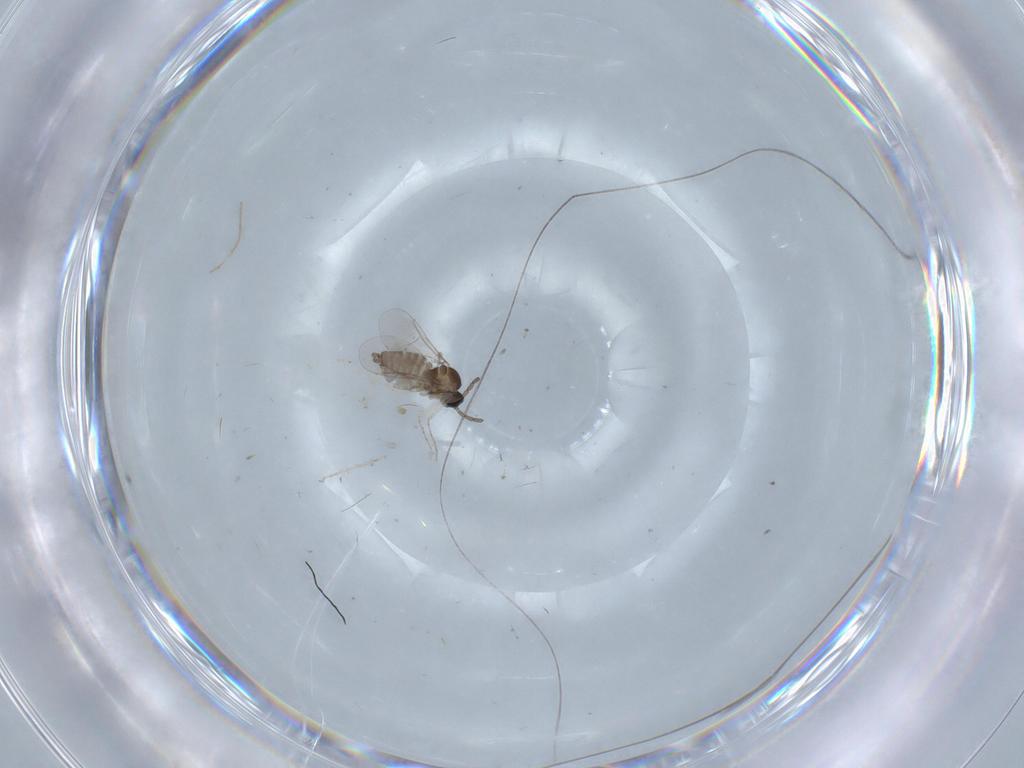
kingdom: Animalia
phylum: Arthropoda
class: Insecta
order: Diptera
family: Cecidomyiidae
